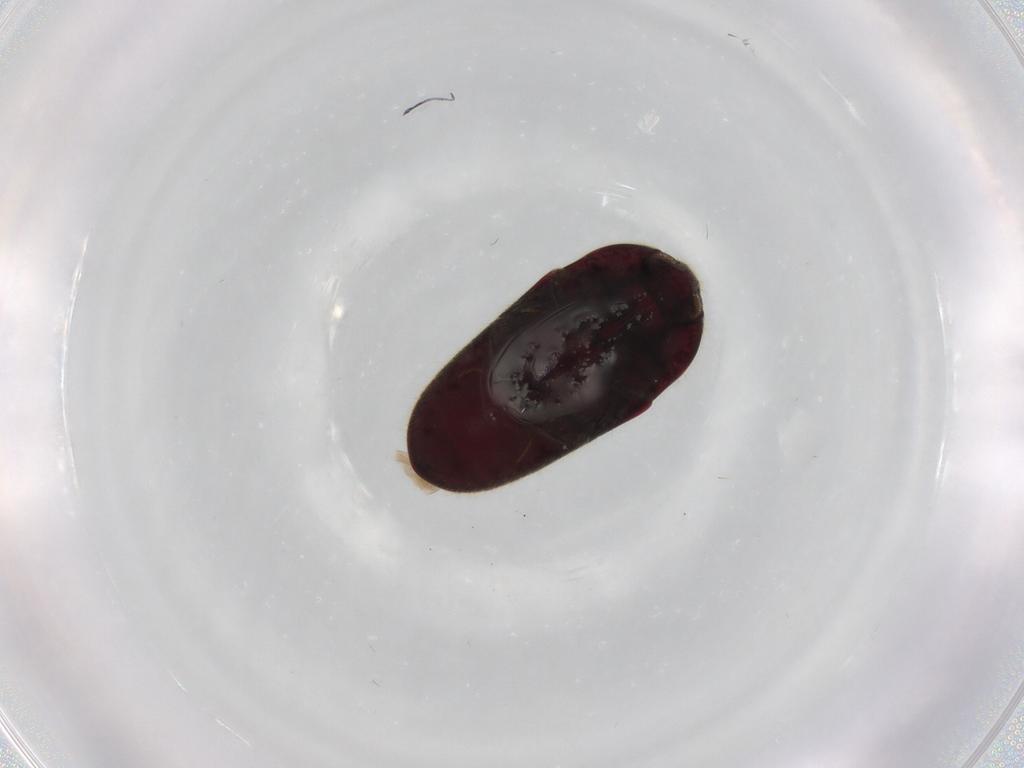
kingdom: Animalia
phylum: Arthropoda
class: Insecta
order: Coleoptera
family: Throscidae
